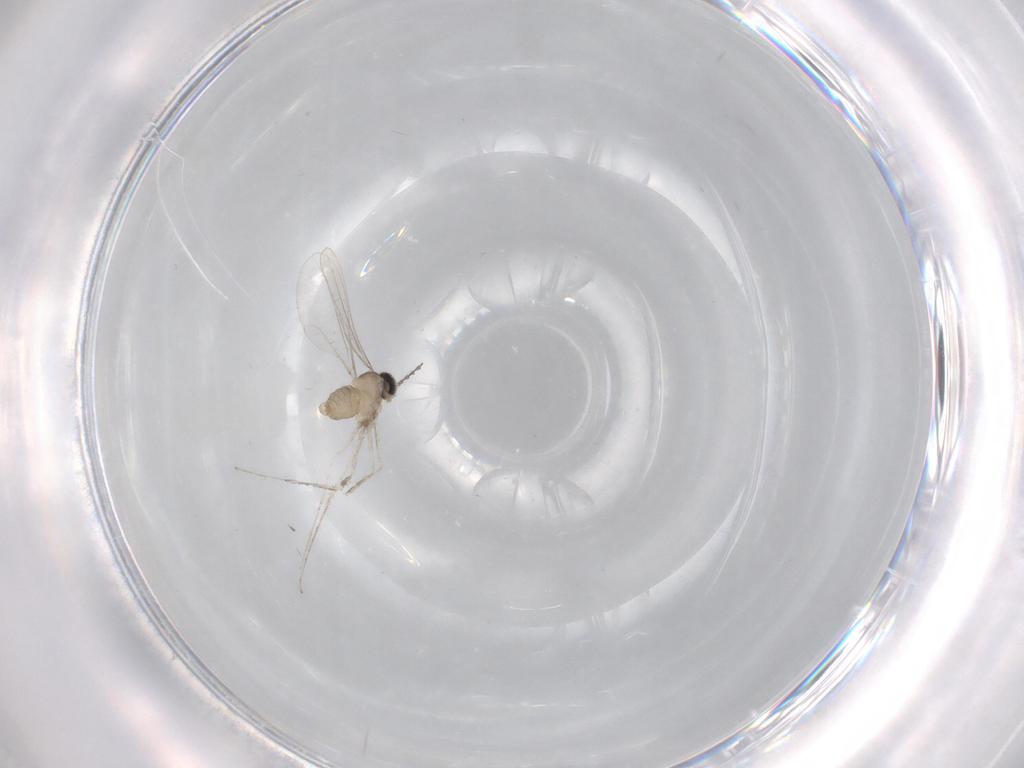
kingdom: Animalia
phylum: Arthropoda
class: Insecta
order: Diptera
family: Cecidomyiidae
